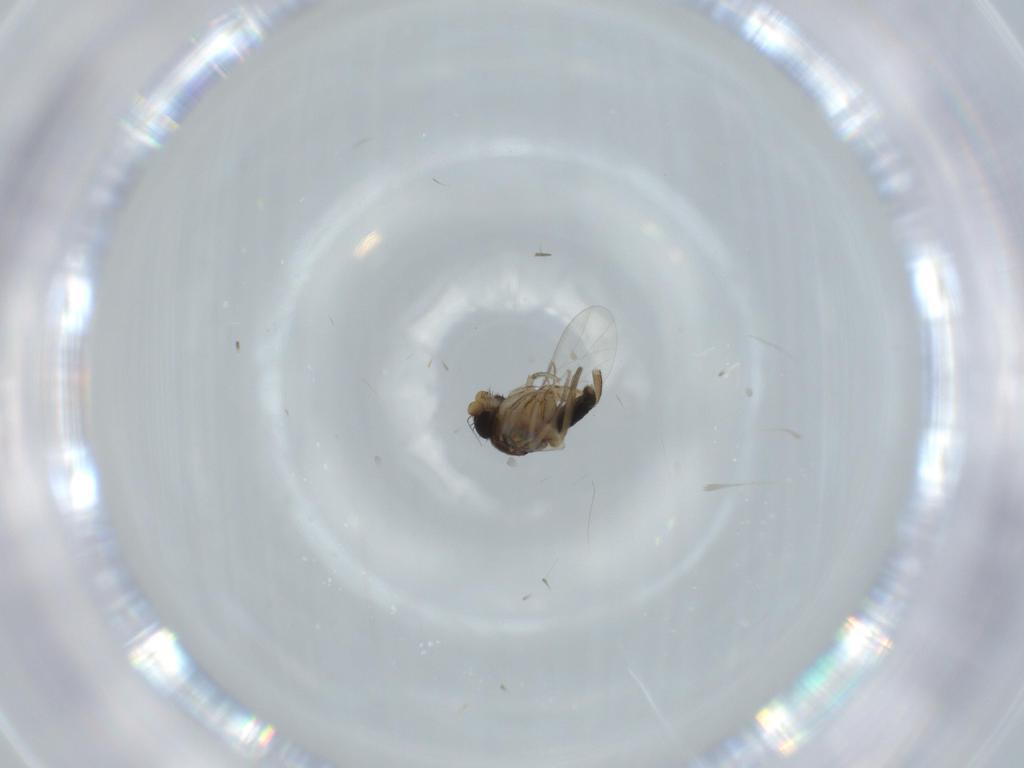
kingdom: Animalia
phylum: Arthropoda
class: Insecta
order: Diptera
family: Phoridae
